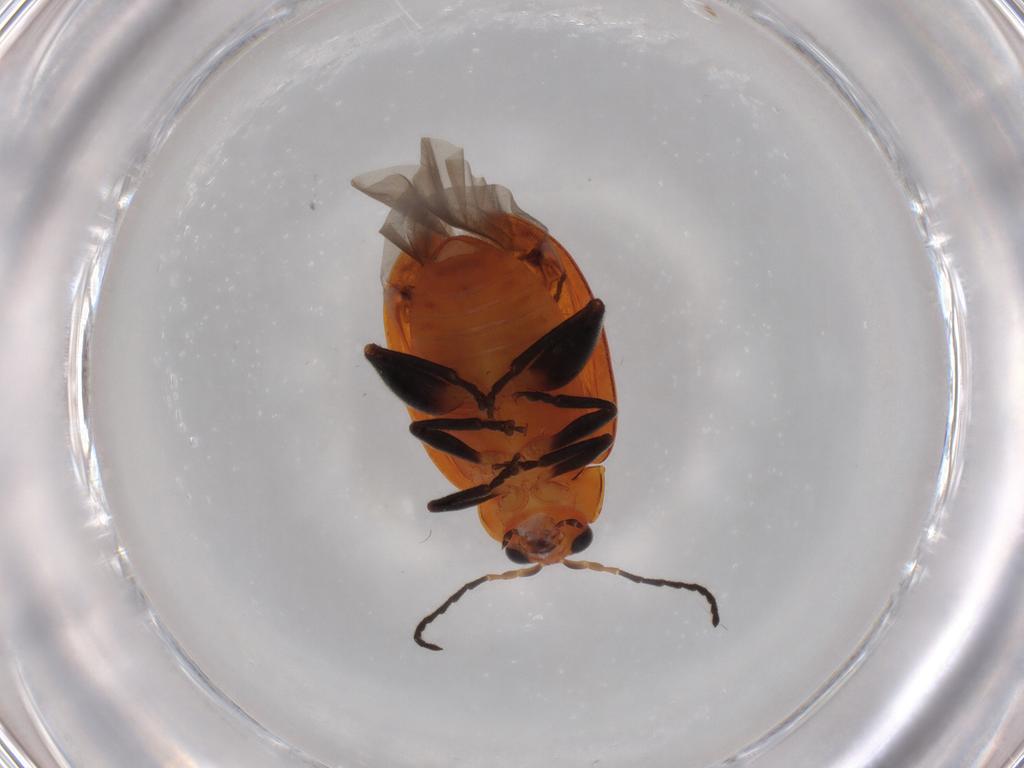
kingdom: Animalia
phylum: Arthropoda
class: Insecta
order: Coleoptera
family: Chrysomelidae
